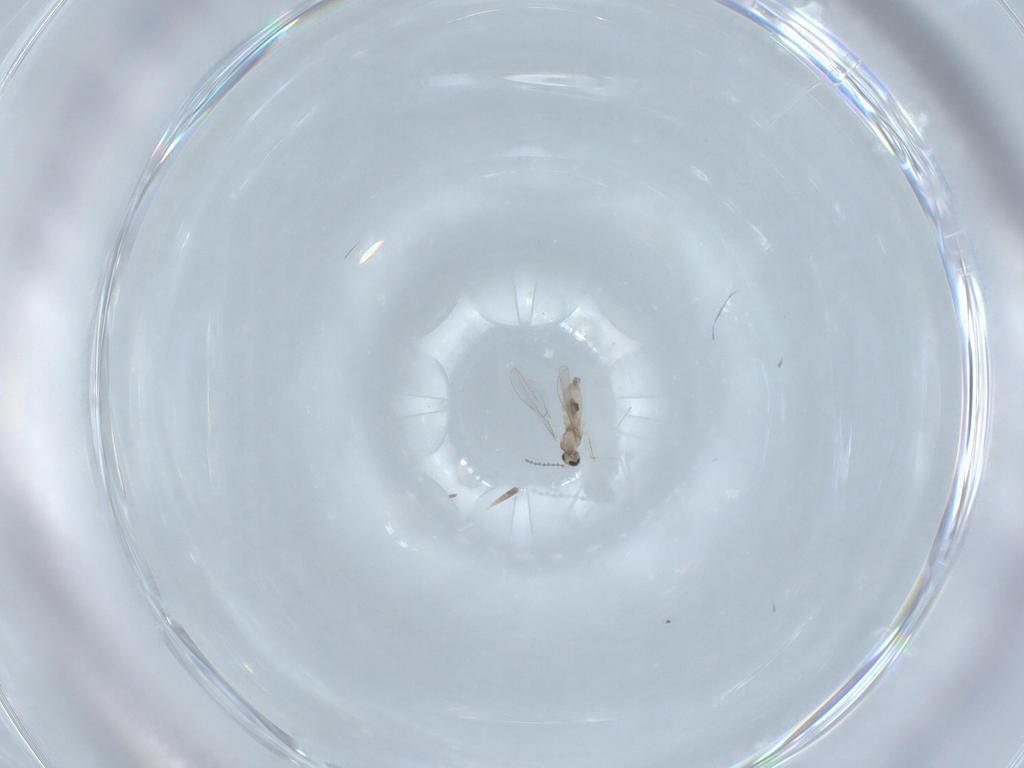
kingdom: Animalia
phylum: Arthropoda
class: Insecta
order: Diptera
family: Cecidomyiidae
